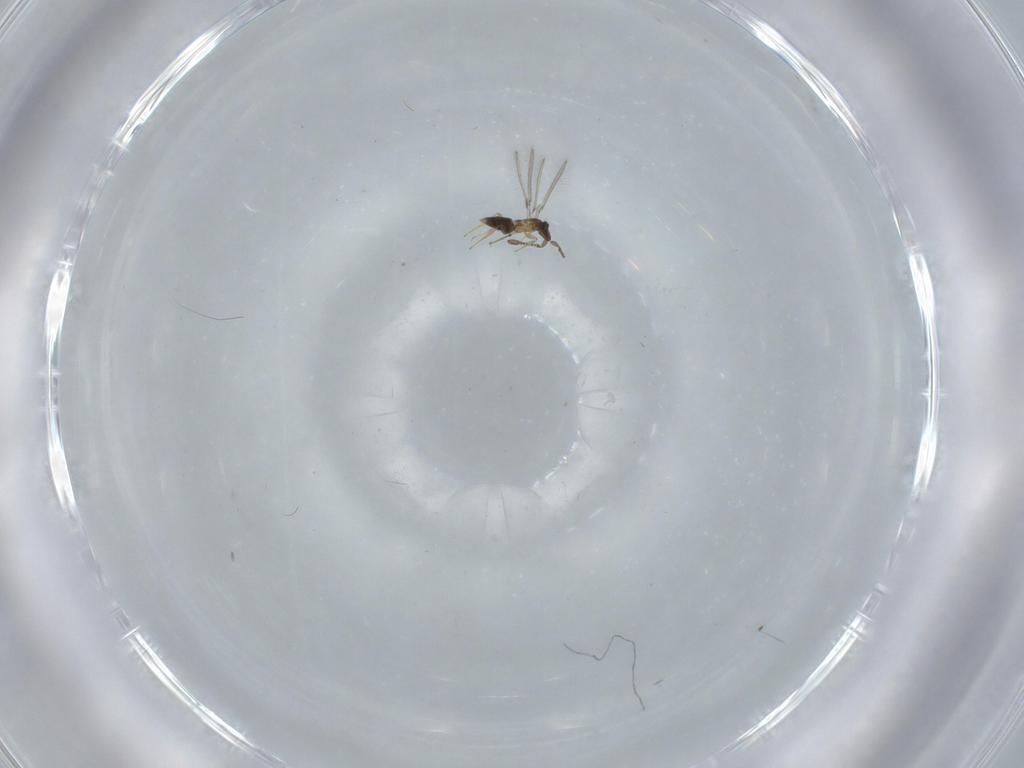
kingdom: Animalia
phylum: Arthropoda
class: Insecta
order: Hymenoptera
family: Formicidae
